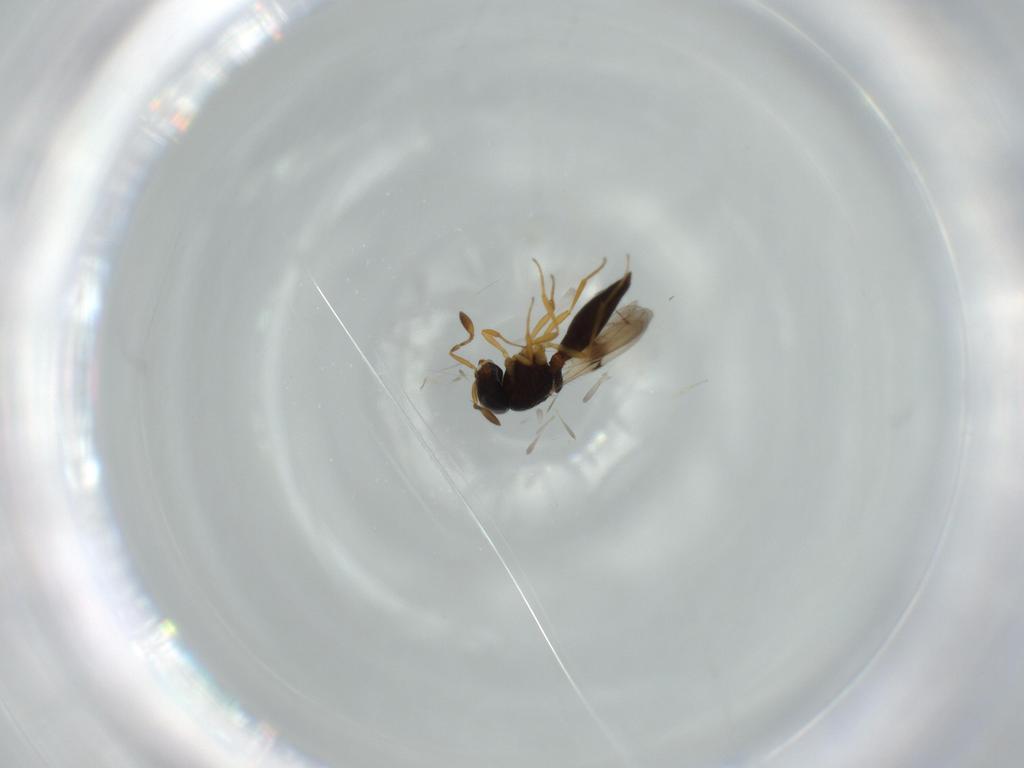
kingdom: Animalia
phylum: Arthropoda
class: Insecta
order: Hymenoptera
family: Scelionidae
